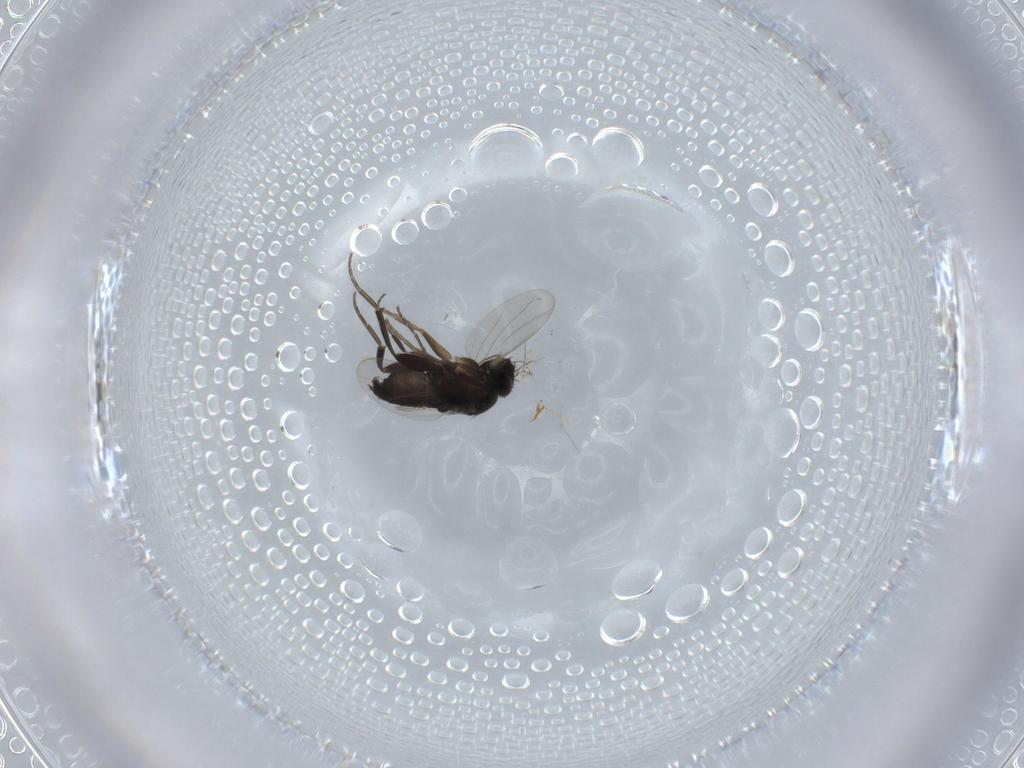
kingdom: Animalia
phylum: Arthropoda
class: Insecta
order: Diptera
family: Phoridae
